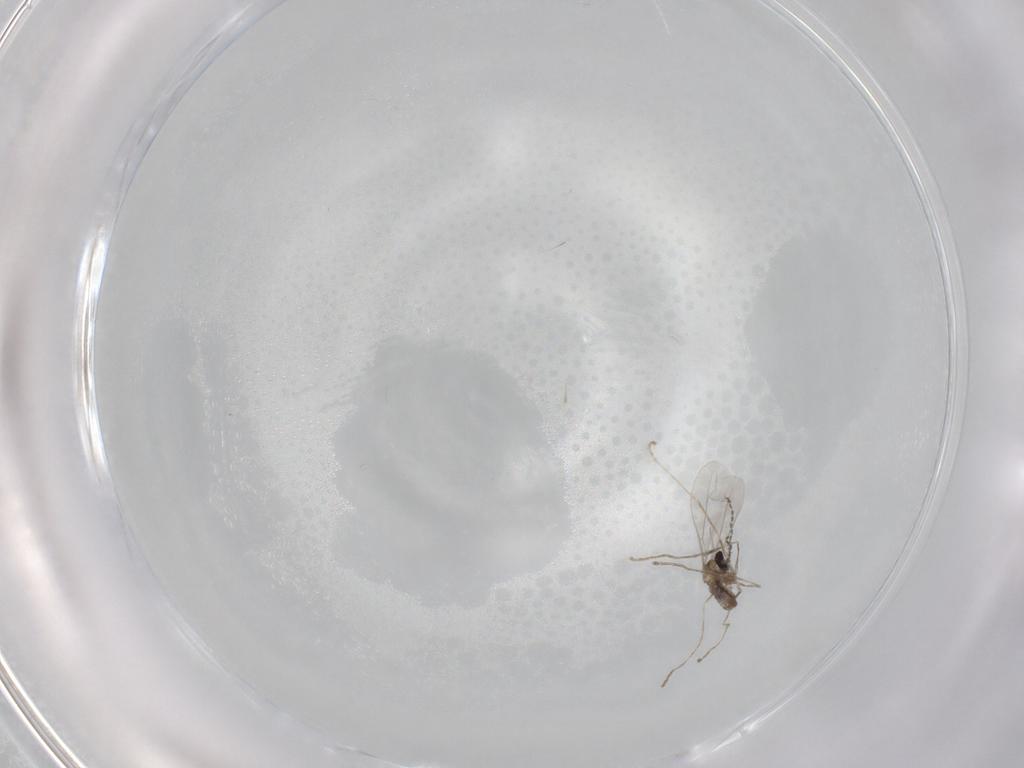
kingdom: Animalia
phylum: Arthropoda
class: Insecta
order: Diptera
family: Cecidomyiidae
